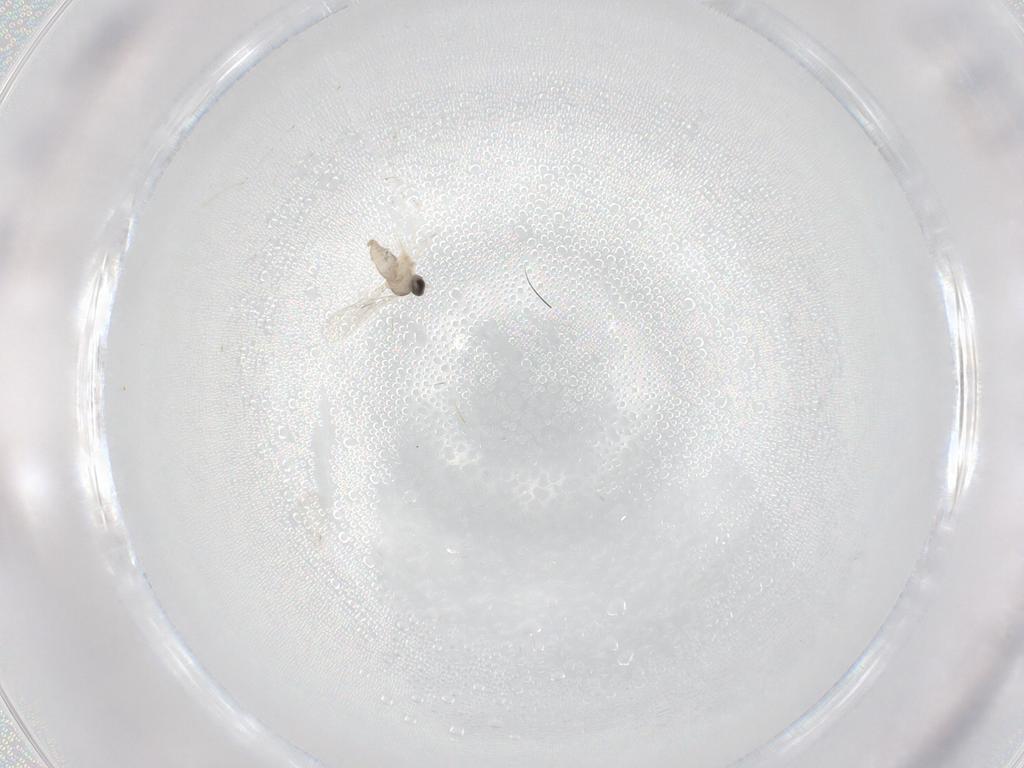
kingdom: Animalia
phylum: Arthropoda
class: Insecta
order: Diptera
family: Cecidomyiidae
